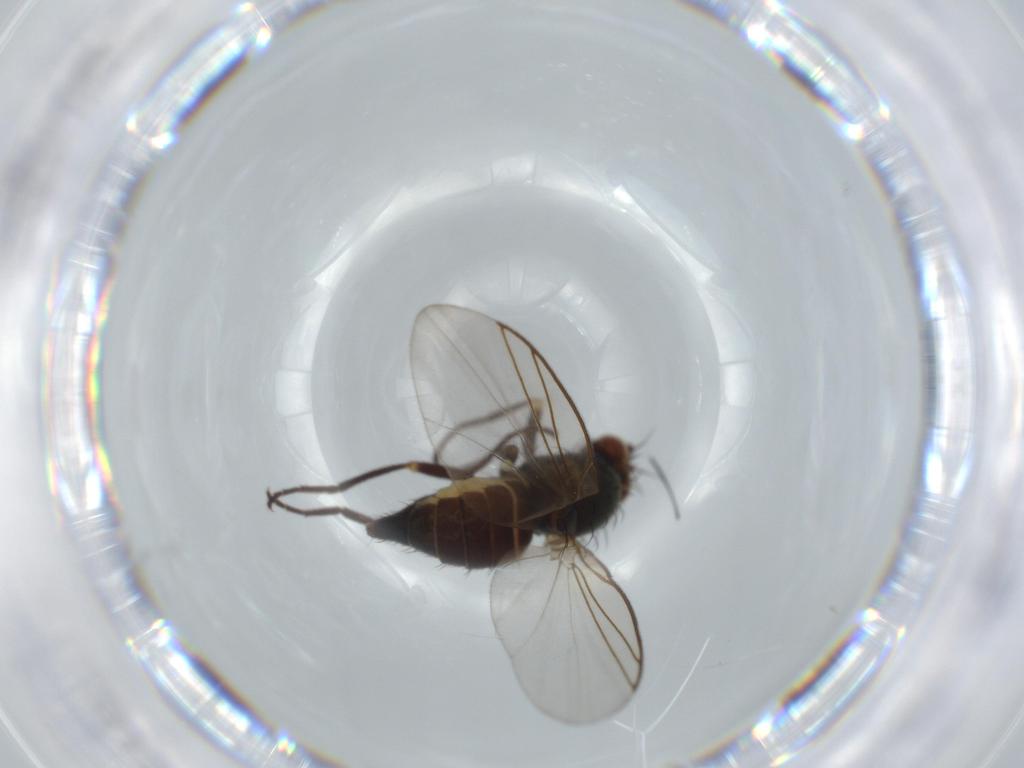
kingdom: Animalia
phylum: Arthropoda
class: Insecta
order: Diptera
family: Agromyzidae
